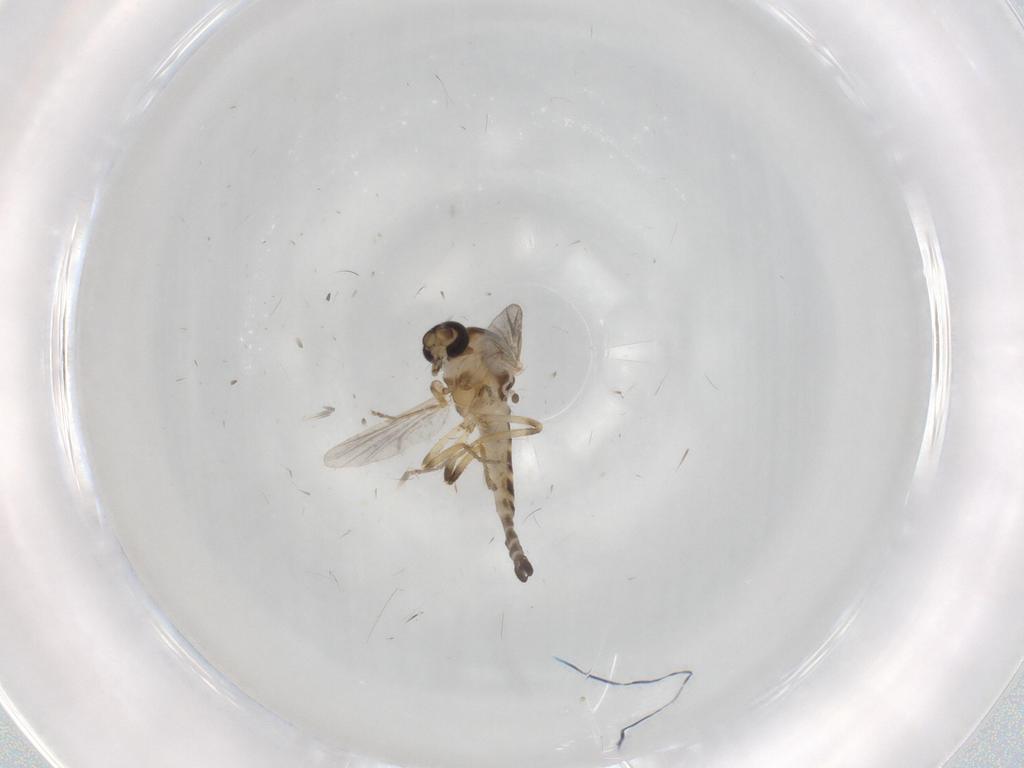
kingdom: Animalia
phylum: Arthropoda
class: Insecta
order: Diptera
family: Ceratopogonidae
